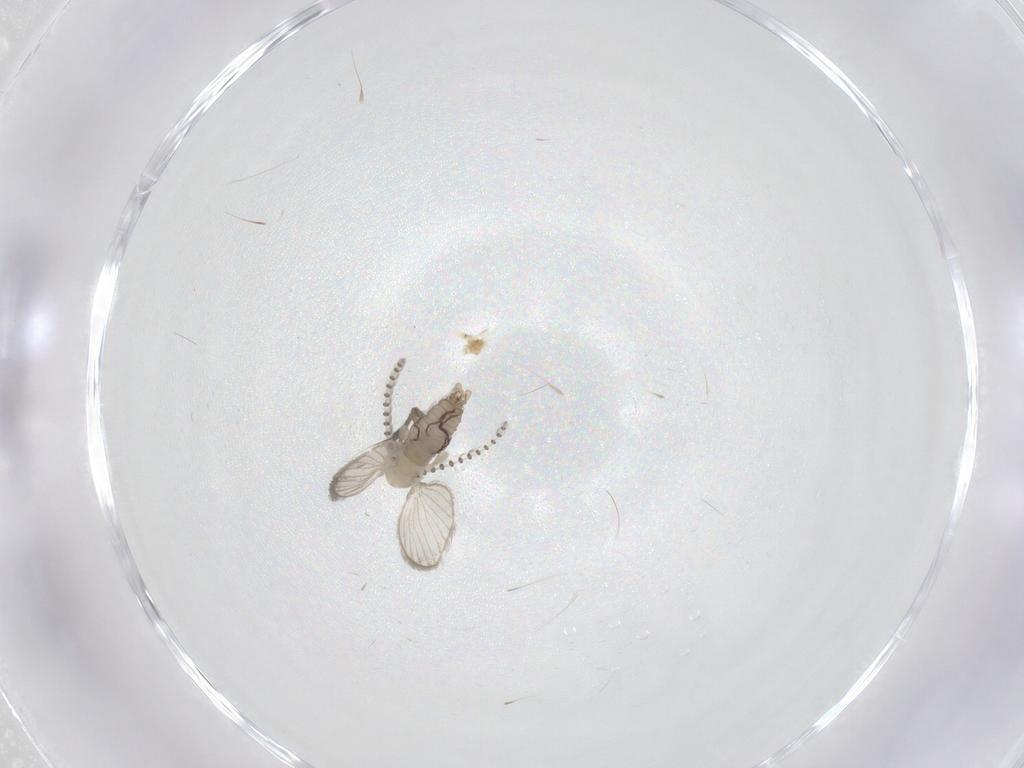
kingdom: Animalia
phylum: Arthropoda
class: Insecta
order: Diptera
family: Psychodidae
